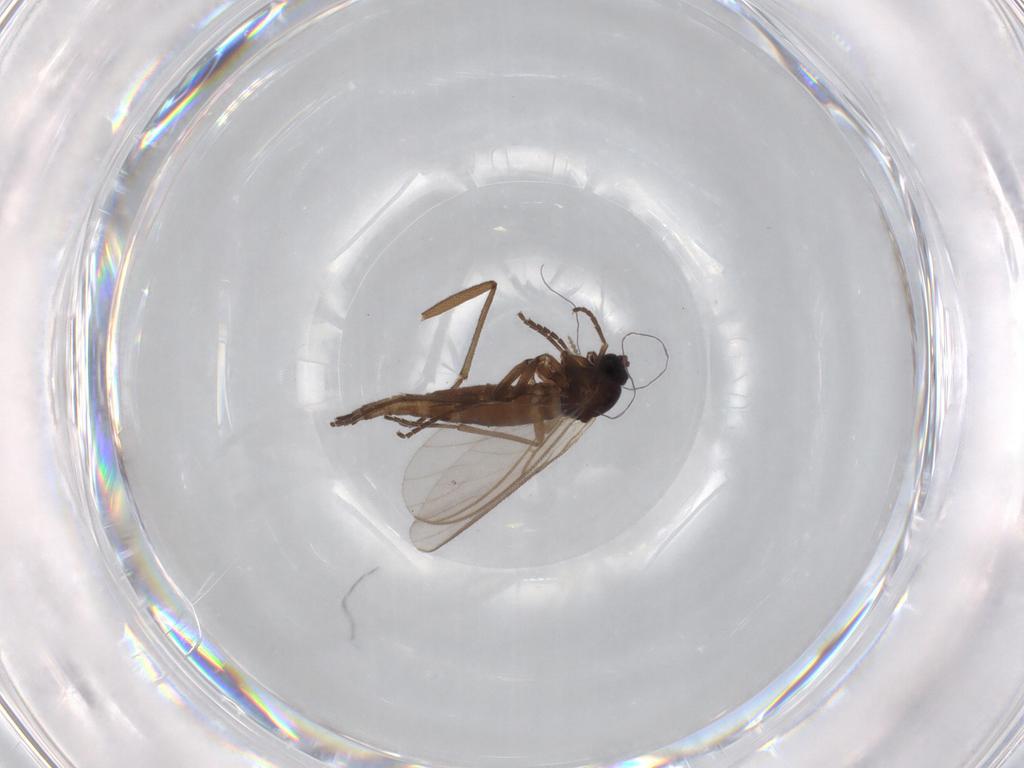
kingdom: Animalia
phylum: Arthropoda
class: Insecta
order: Diptera
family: Sciaridae
